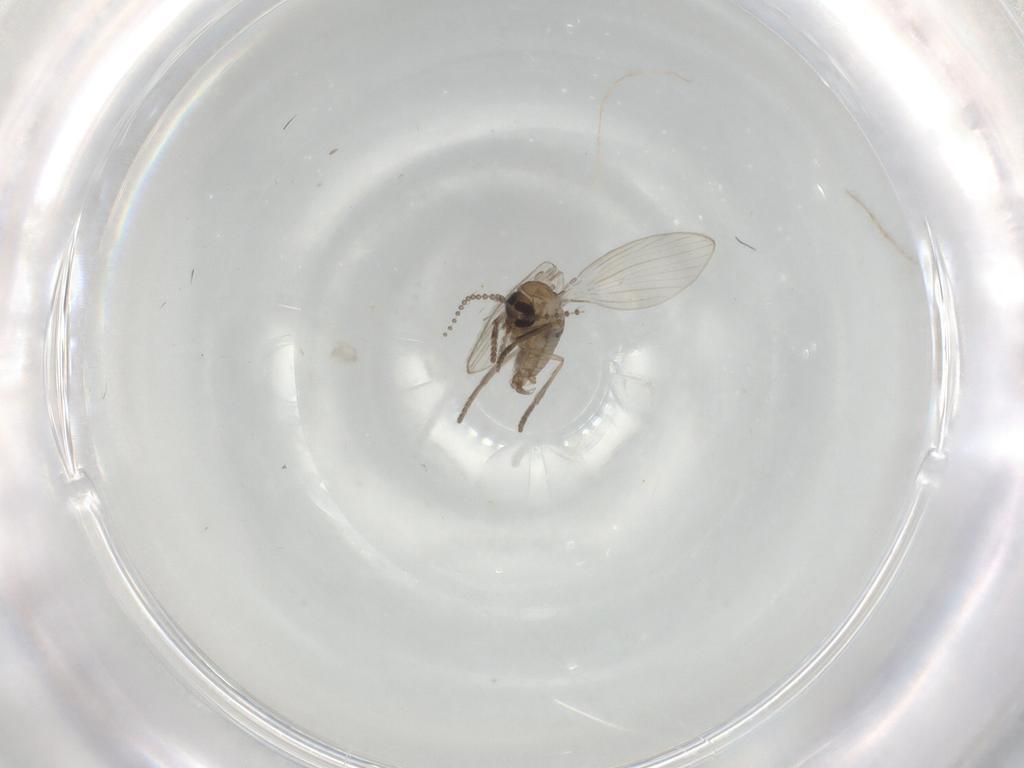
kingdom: Animalia
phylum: Arthropoda
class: Insecta
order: Diptera
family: Psychodidae
